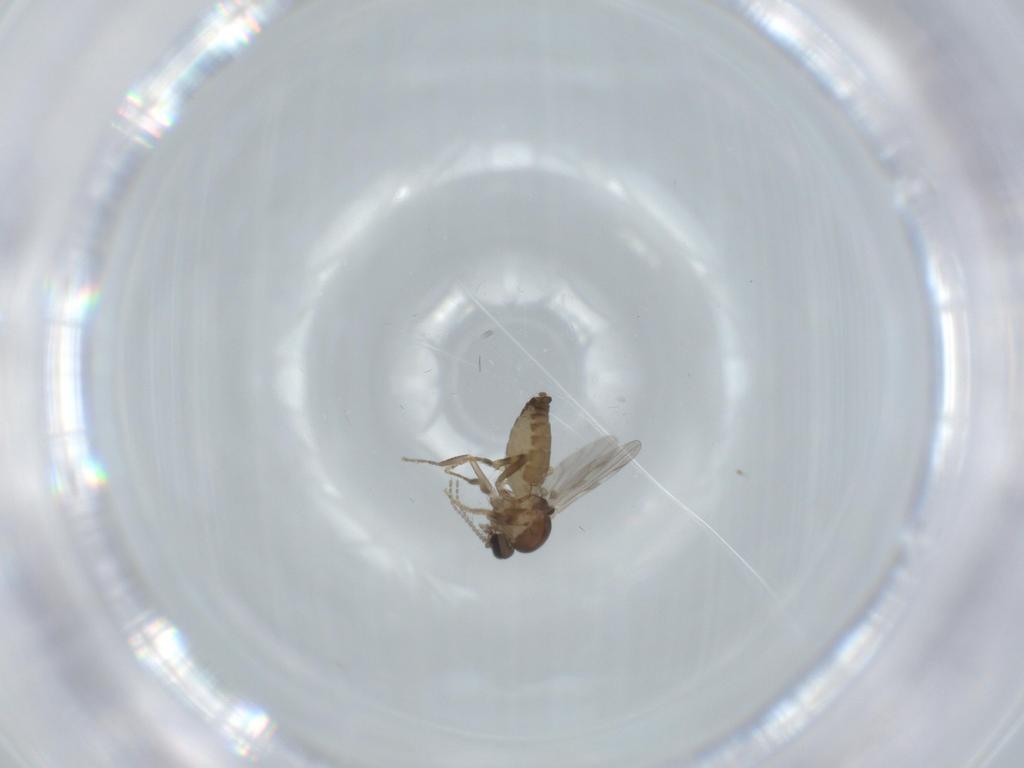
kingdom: Animalia
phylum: Arthropoda
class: Insecta
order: Diptera
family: Ceratopogonidae
